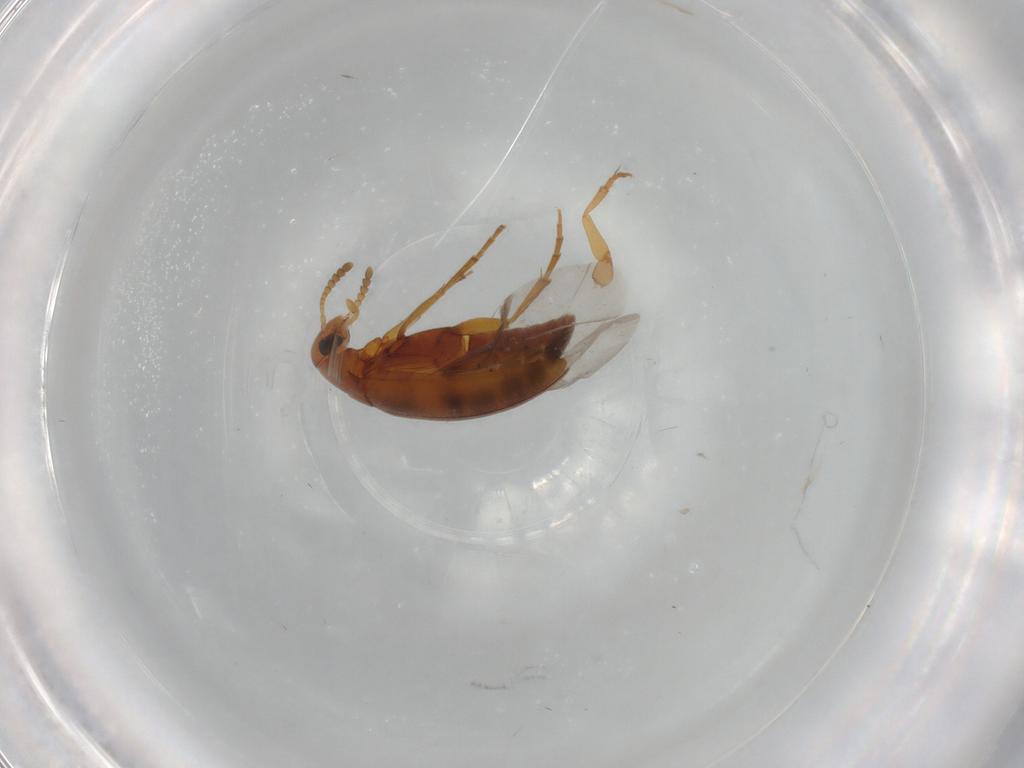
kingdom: Animalia
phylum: Arthropoda
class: Insecta
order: Coleoptera
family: Scraptiidae
